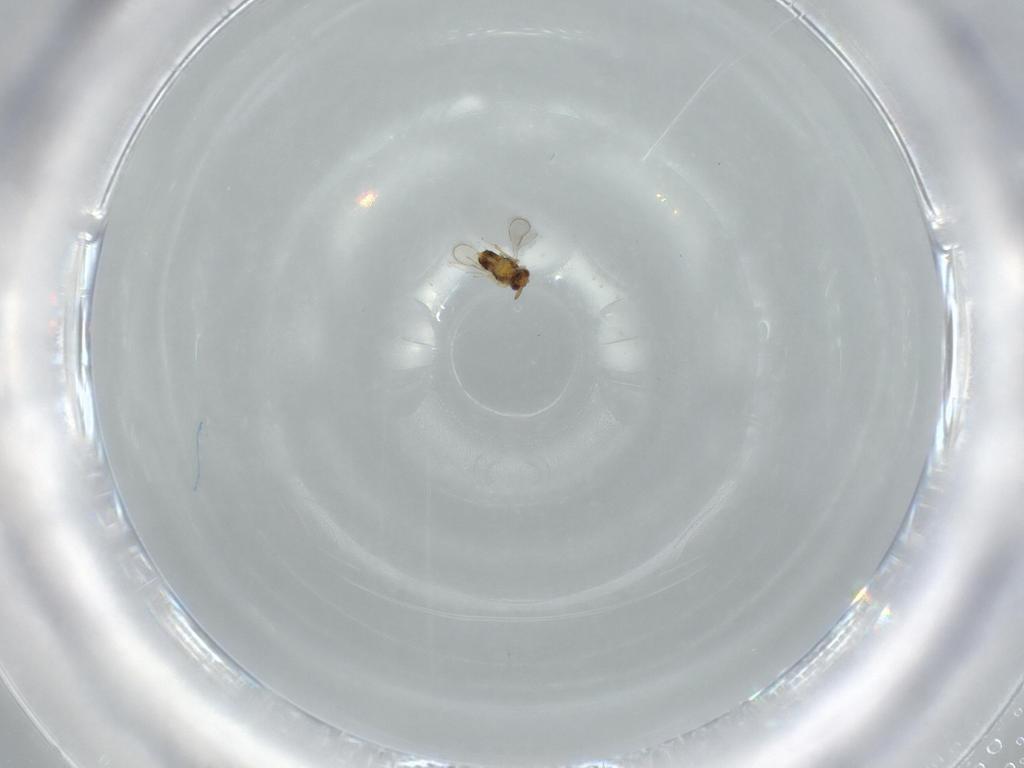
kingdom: Animalia
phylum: Arthropoda
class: Insecta
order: Hymenoptera
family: Aphelinidae
